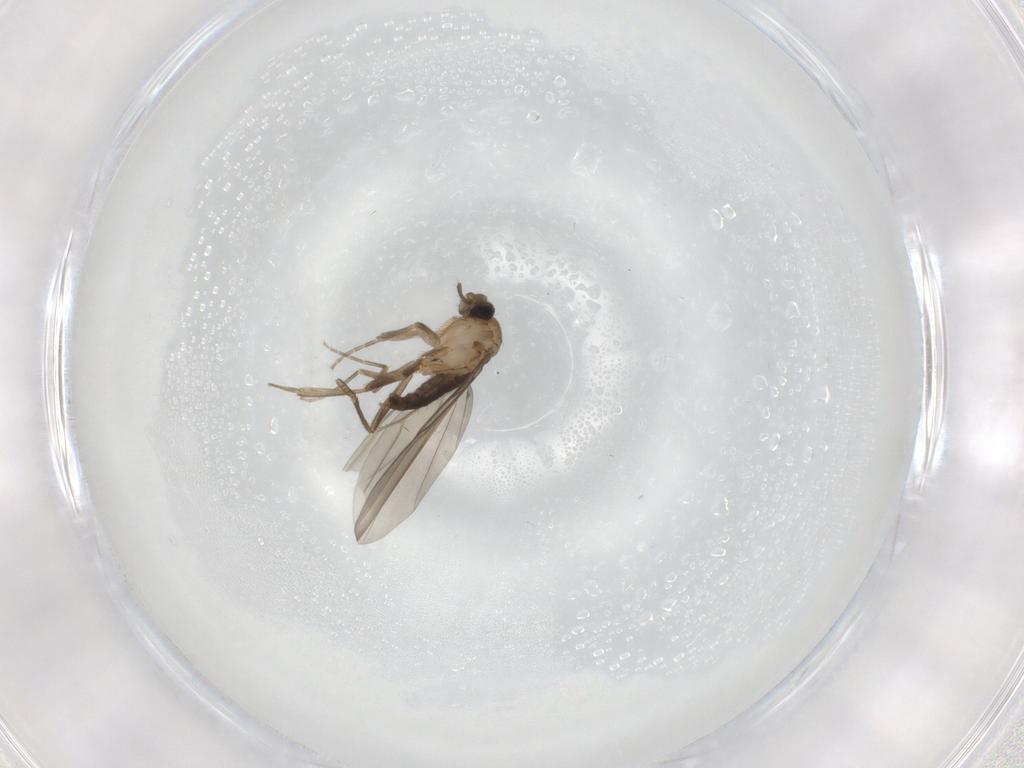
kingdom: Animalia
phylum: Arthropoda
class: Insecta
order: Diptera
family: Phoridae
